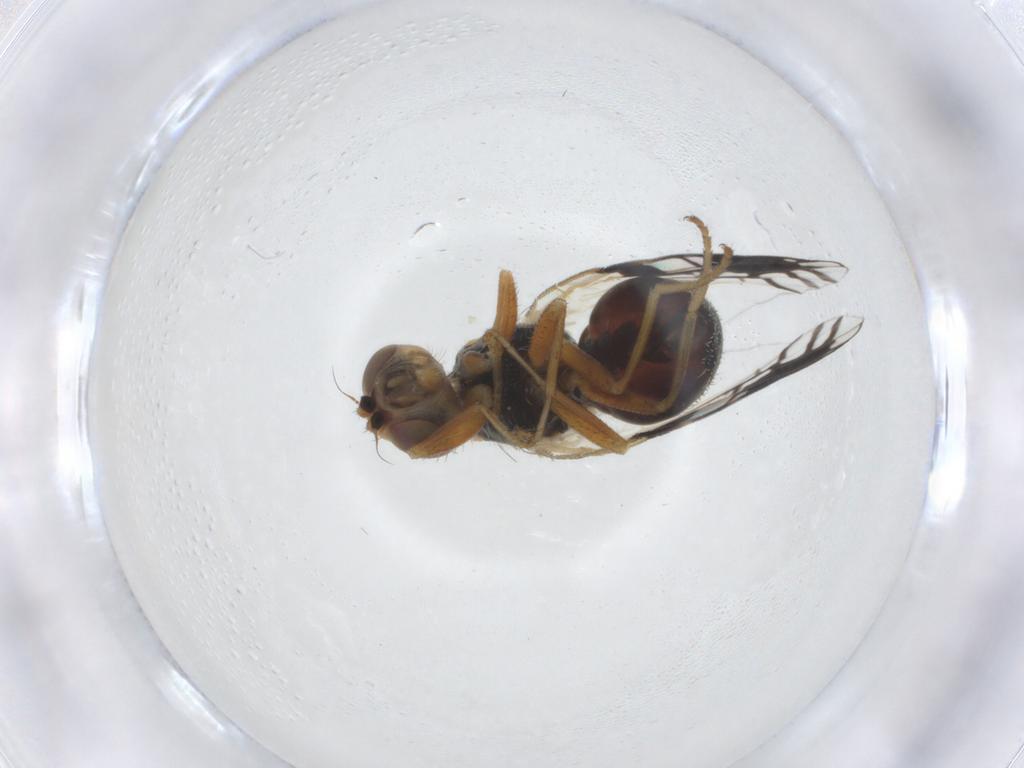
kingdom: Animalia
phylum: Arthropoda
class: Insecta
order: Diptera
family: Tephritidae
